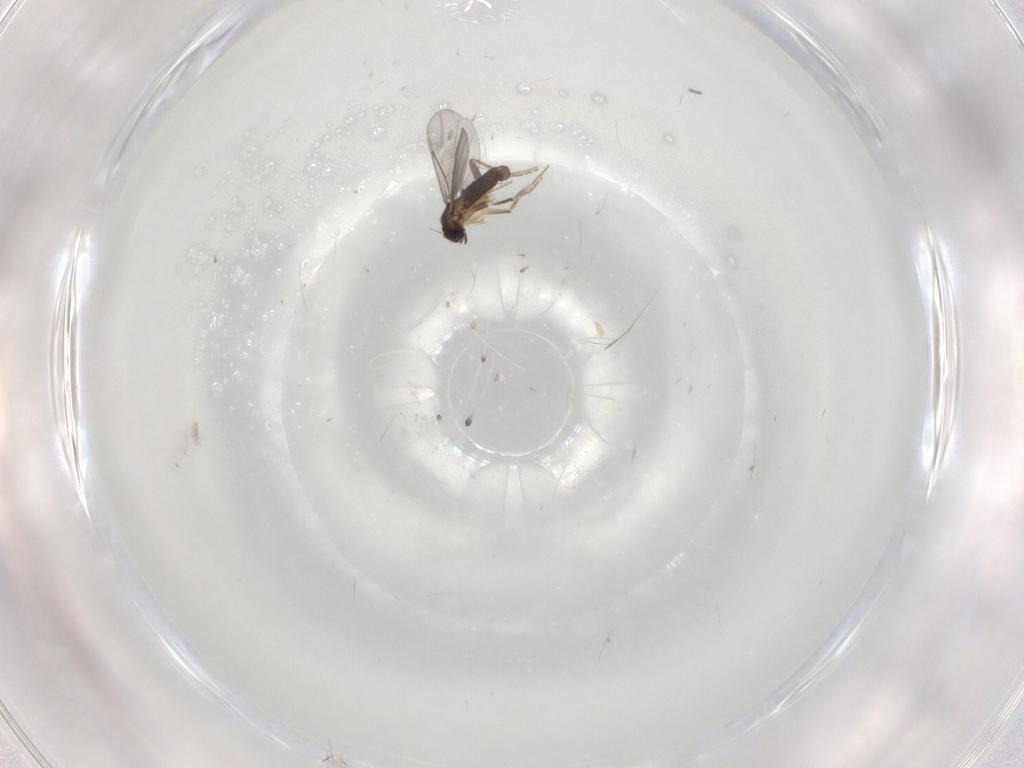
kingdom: Animalia
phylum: Arthropoda
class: Insecta
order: Diptera
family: Ceratopogonidae
